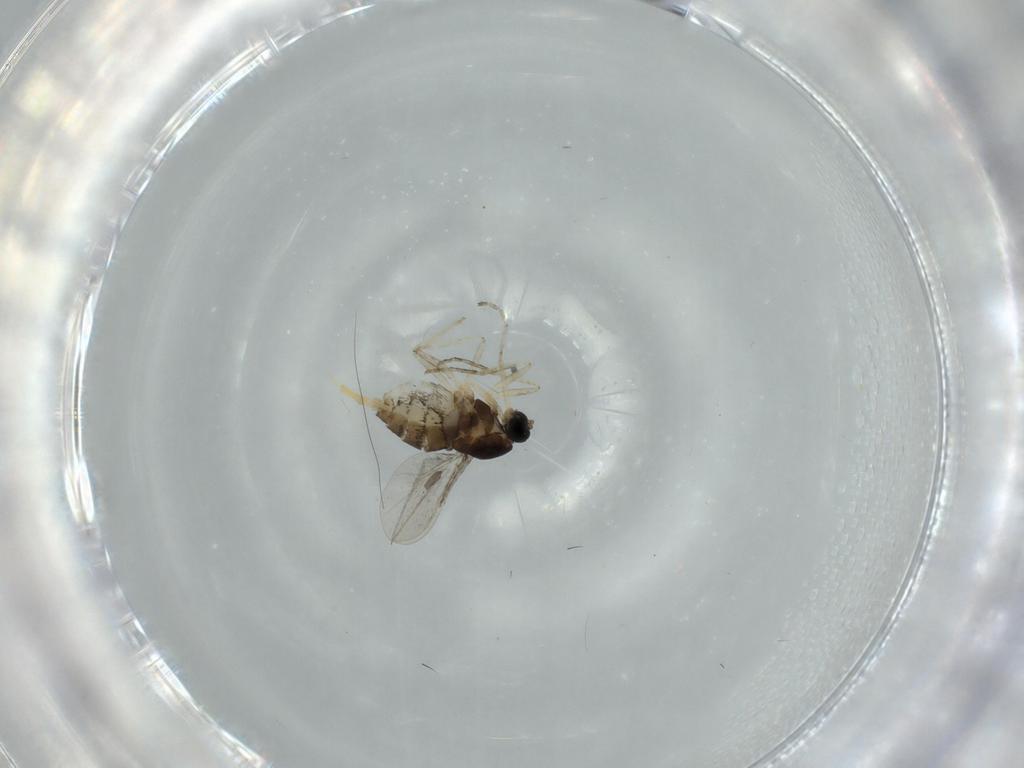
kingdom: Animalia
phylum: Arthropoda
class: Insecta
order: Diptera
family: Cecidomyiidae
